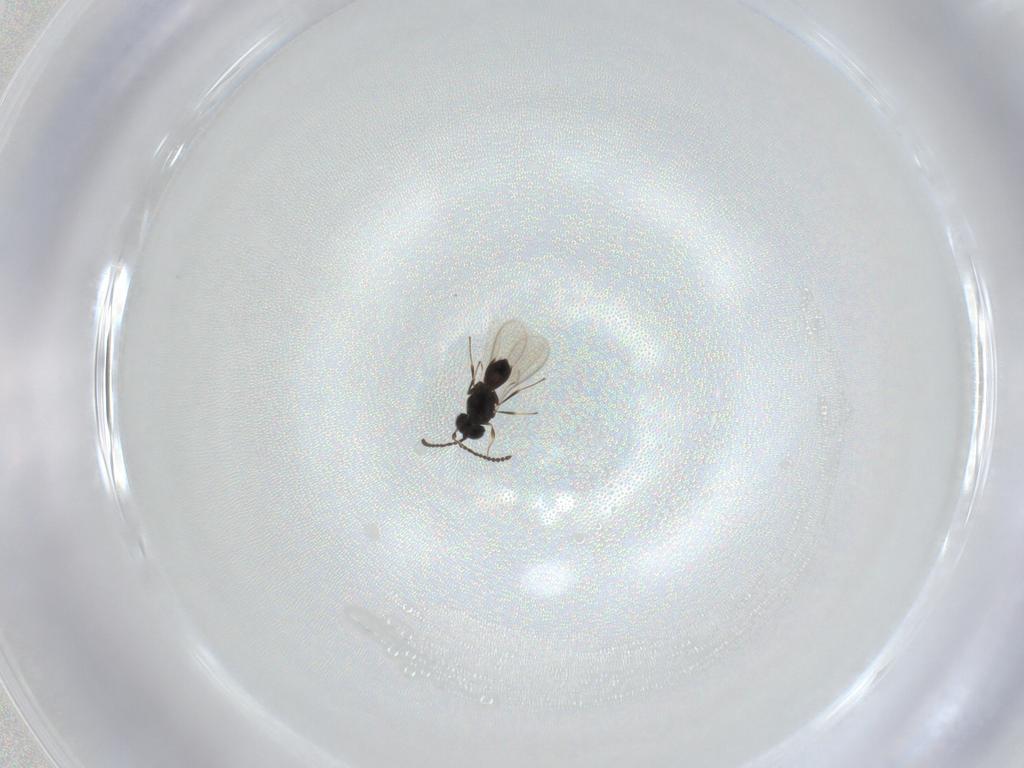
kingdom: Animalia
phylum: Arthropoda
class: Insecta
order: Hymenoptera
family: Scelionidae
